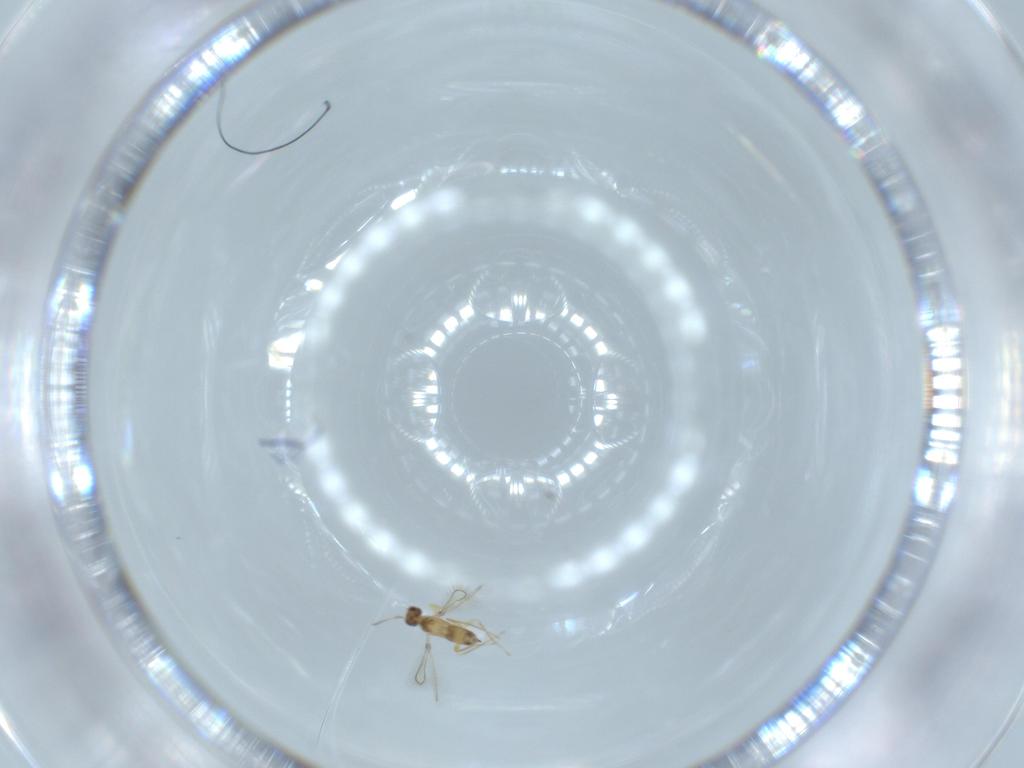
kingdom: Animalia
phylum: Arthropoda
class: Insecta
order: Hymenoptera
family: Mymaridae
